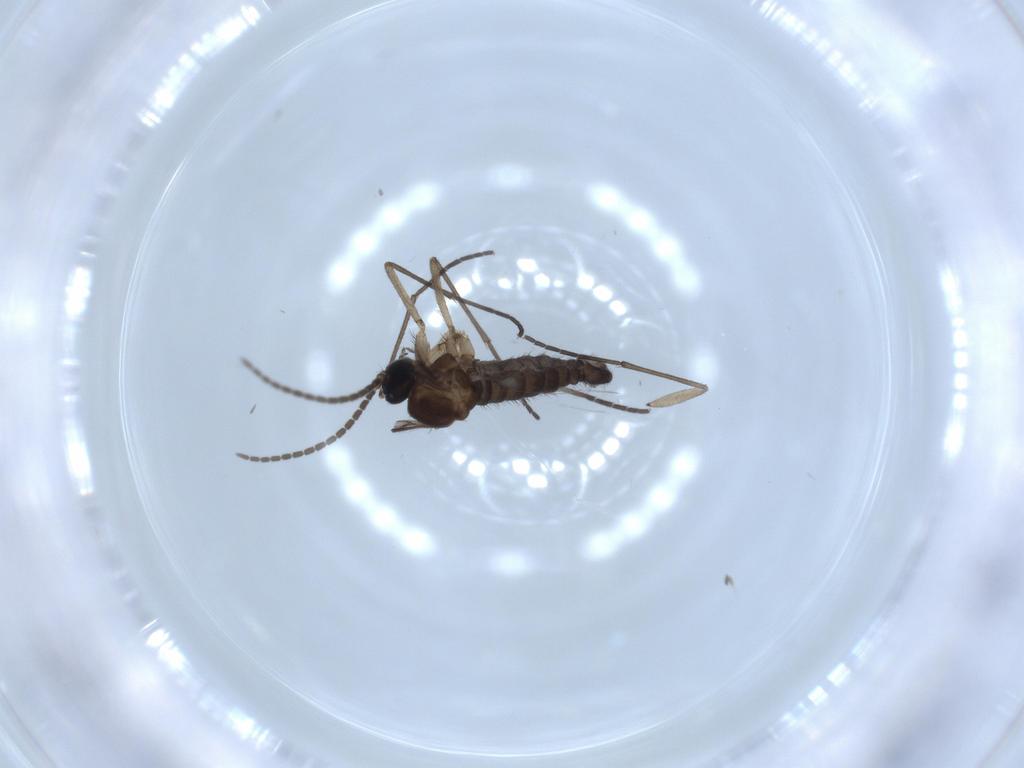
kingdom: Animalia
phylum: Arthropoda
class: Insecta
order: Diptera
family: Sciaridae
